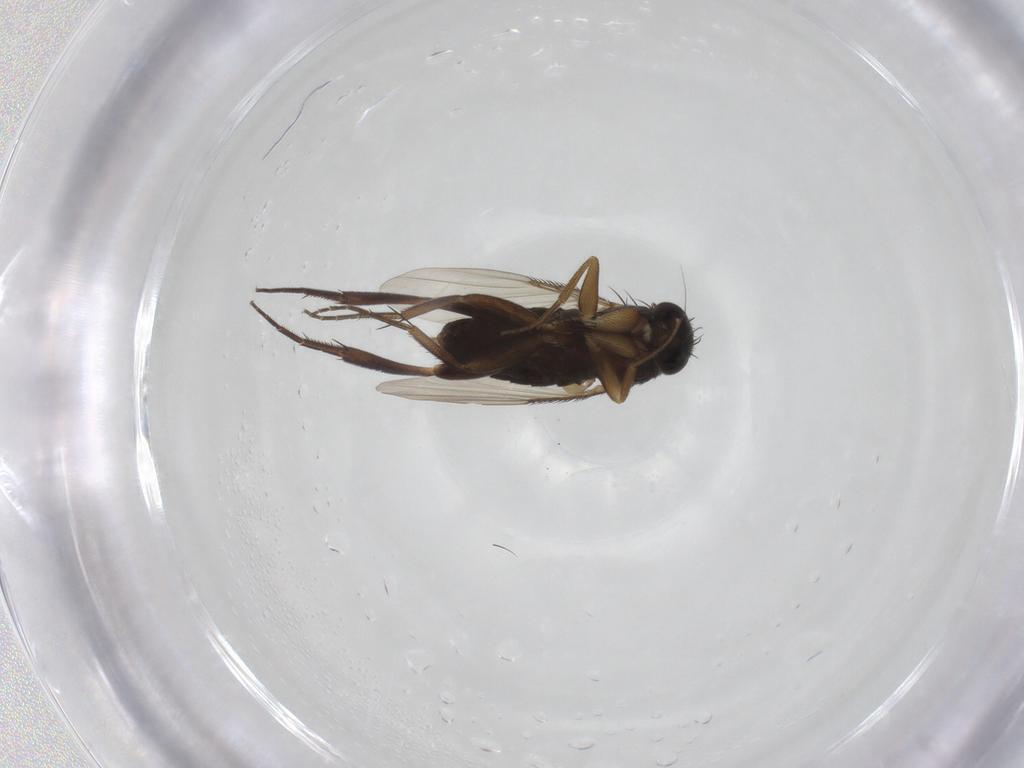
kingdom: Animalia
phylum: Arthropoda
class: Insecta
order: Diptera
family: Phoridae
